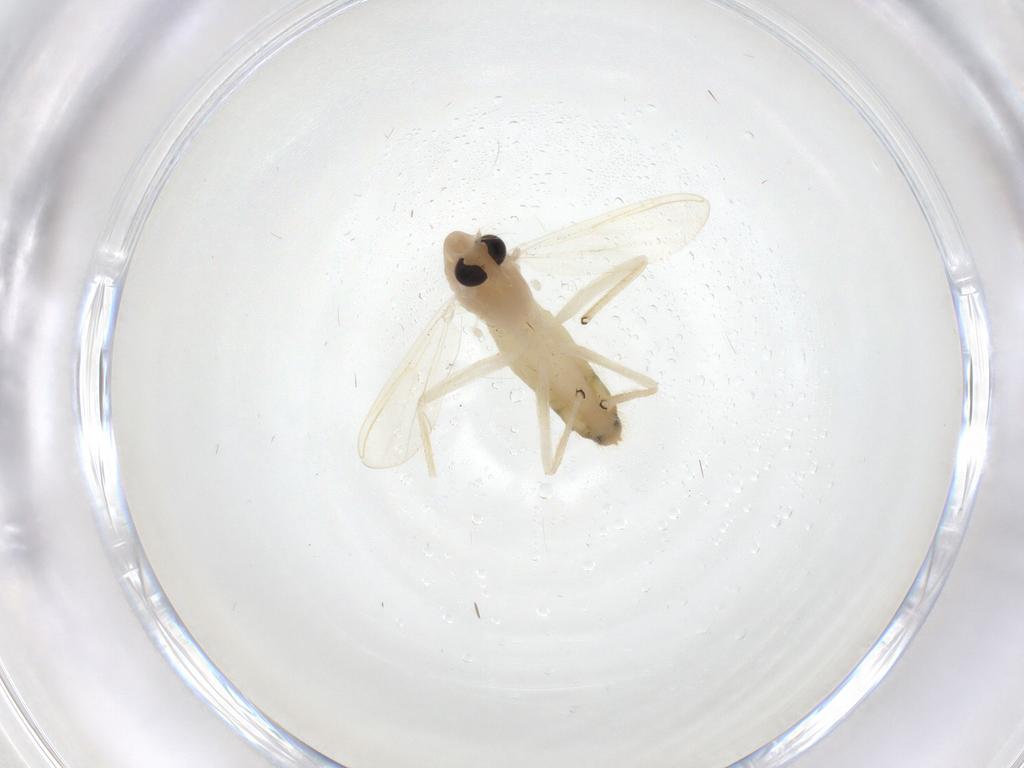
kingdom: Animalia
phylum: Arthropoda
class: Insecta
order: Diptera
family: Chironomidae
